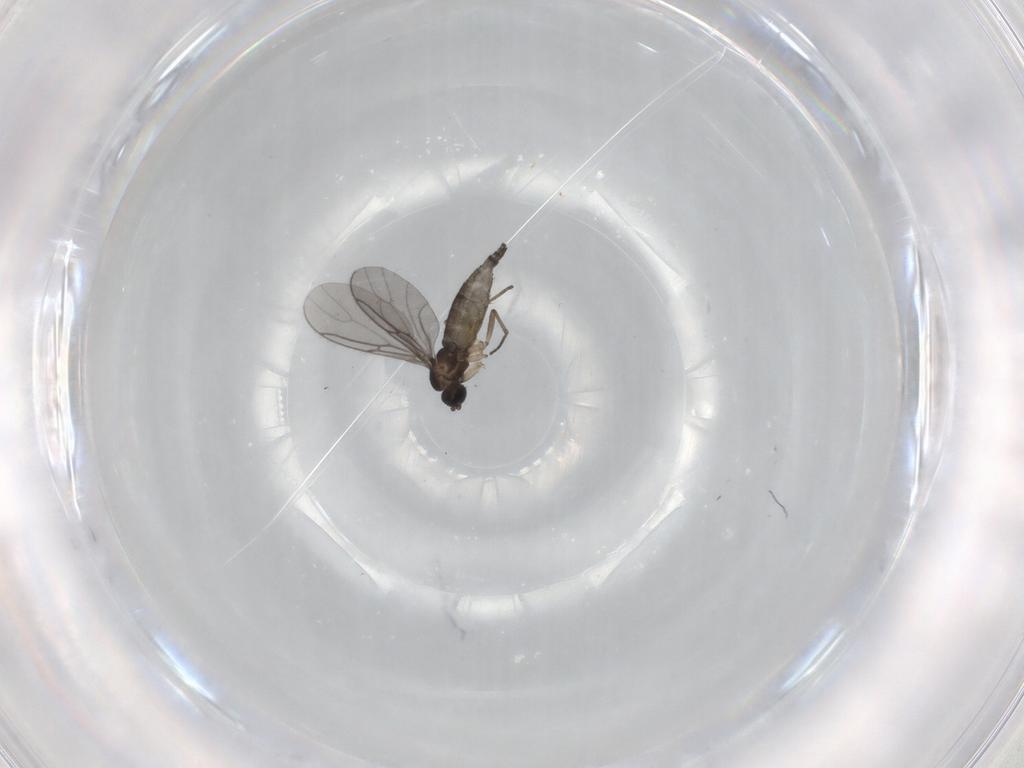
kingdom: Animalia
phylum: Arthropoda
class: Insecta
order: Diptera
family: Sciaridae
